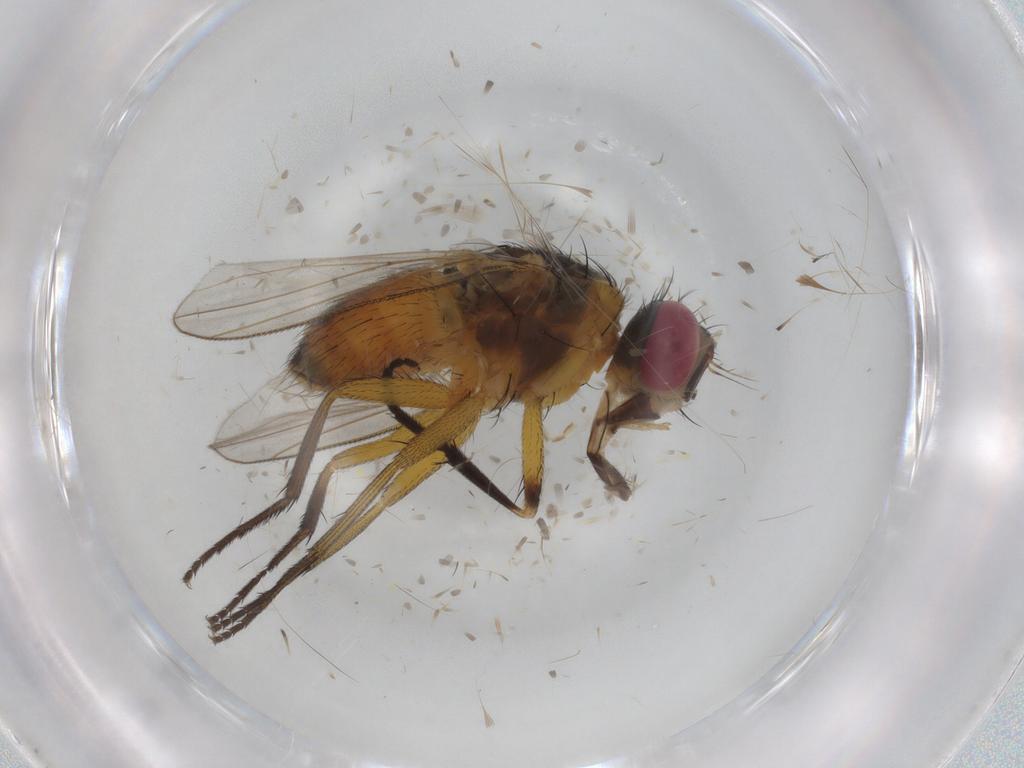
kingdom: Animalia
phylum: Arthropoda
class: Insecta
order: Diptera
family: Muscidae
